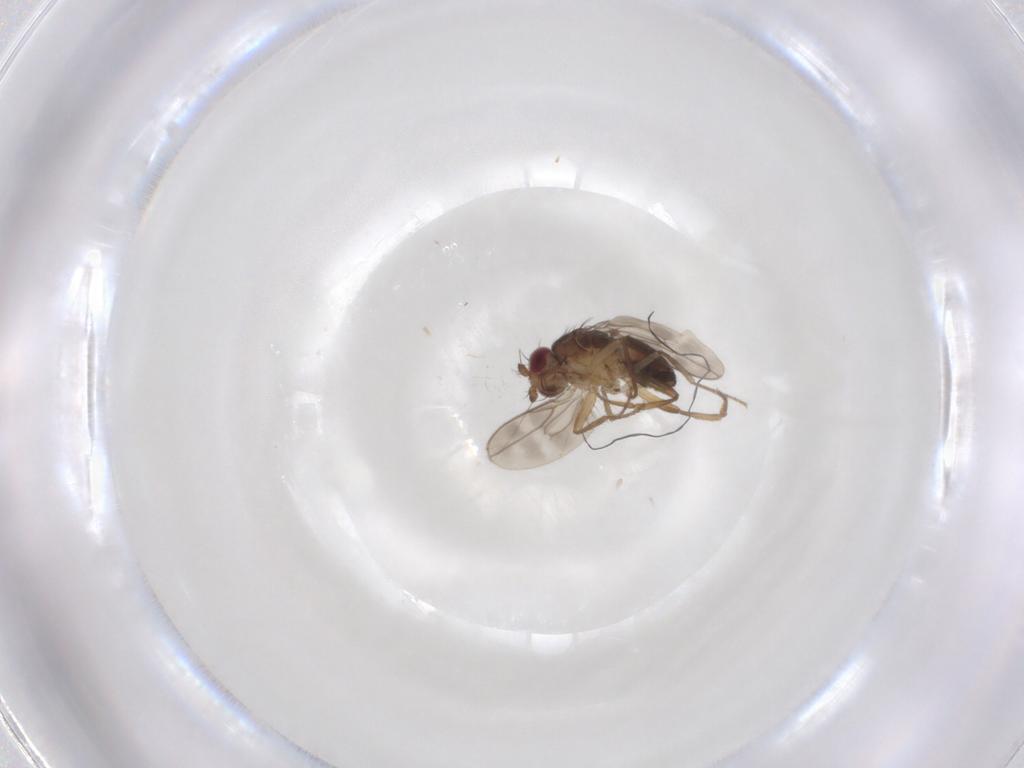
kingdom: Animalia
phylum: Arthropoda
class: Insecta
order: Diptera
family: Sphaeroceridae
